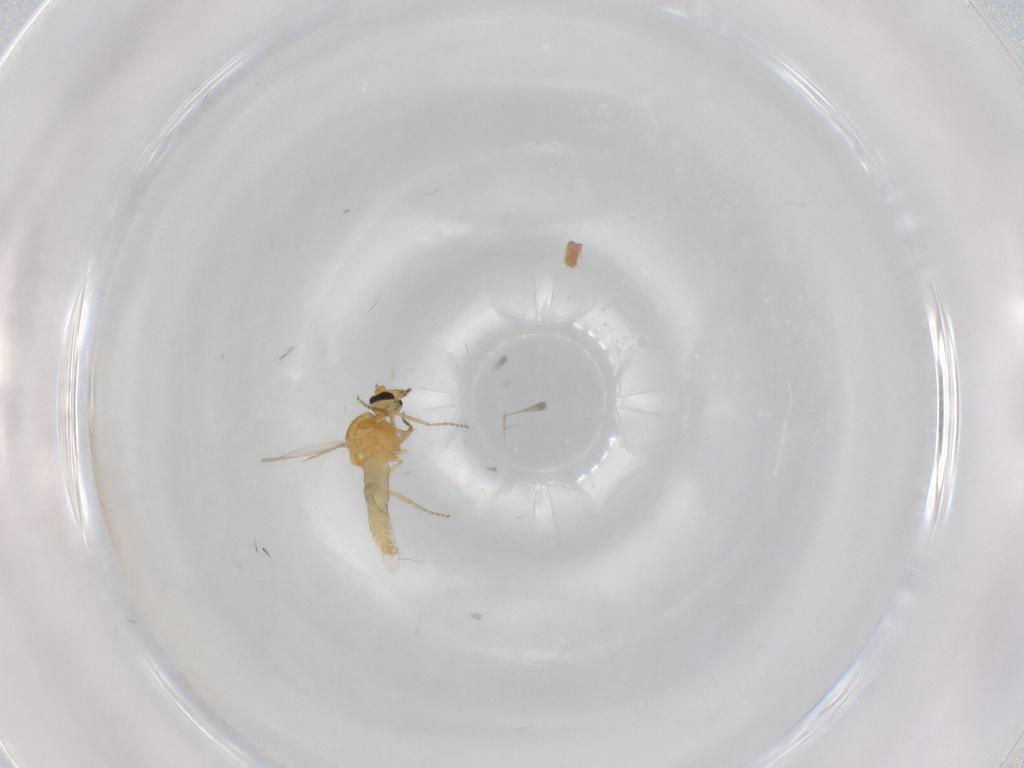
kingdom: Animalia
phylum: Arthropoda
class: Insecta
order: Diptera
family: Ceratopogonidae
